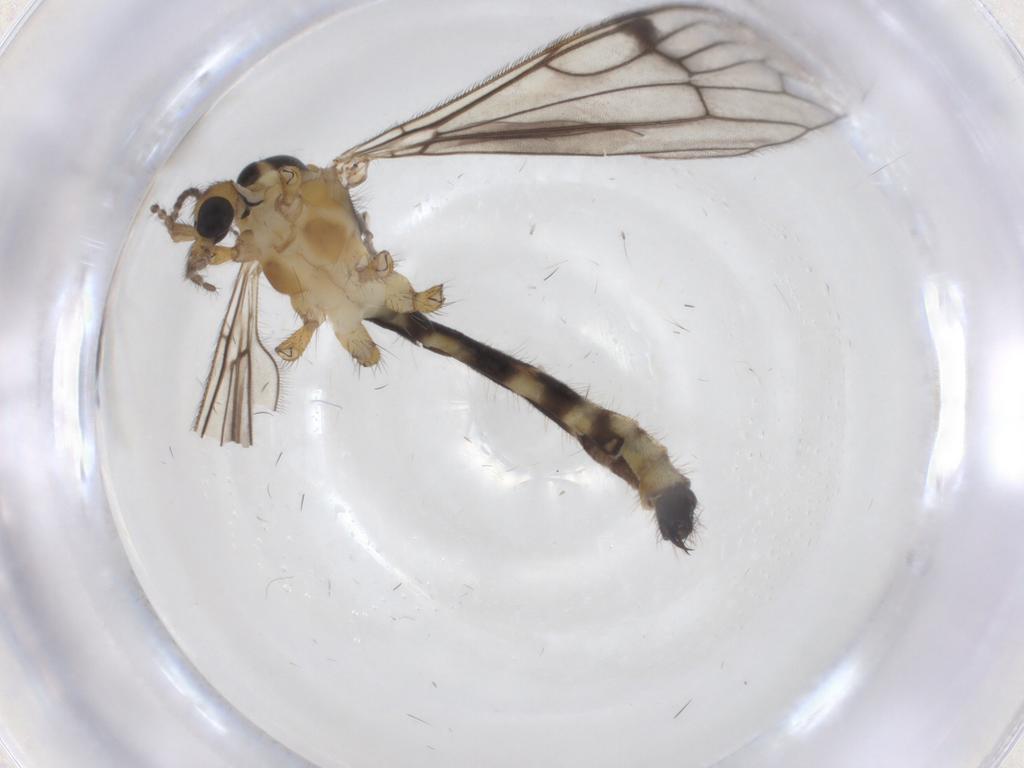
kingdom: Animalia
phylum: Arthropoda
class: Insecta
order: Diptera
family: Limoniidae
